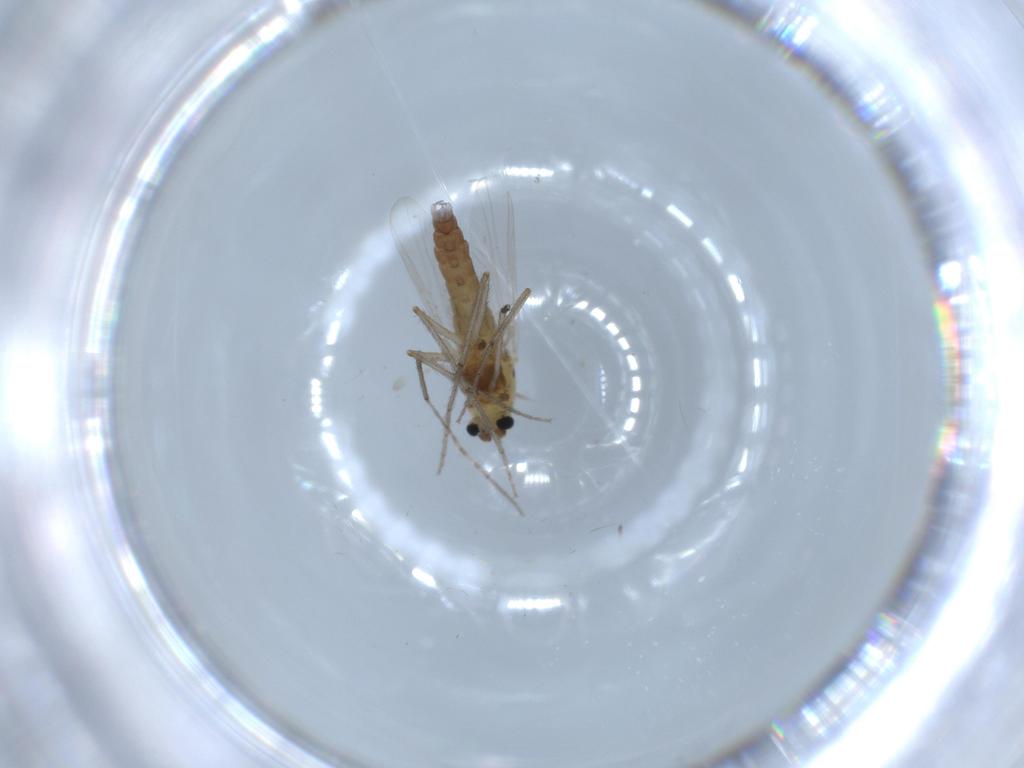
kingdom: Animalia
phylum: Arthropoda
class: Insecta
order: Diptera
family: Chironomidae
